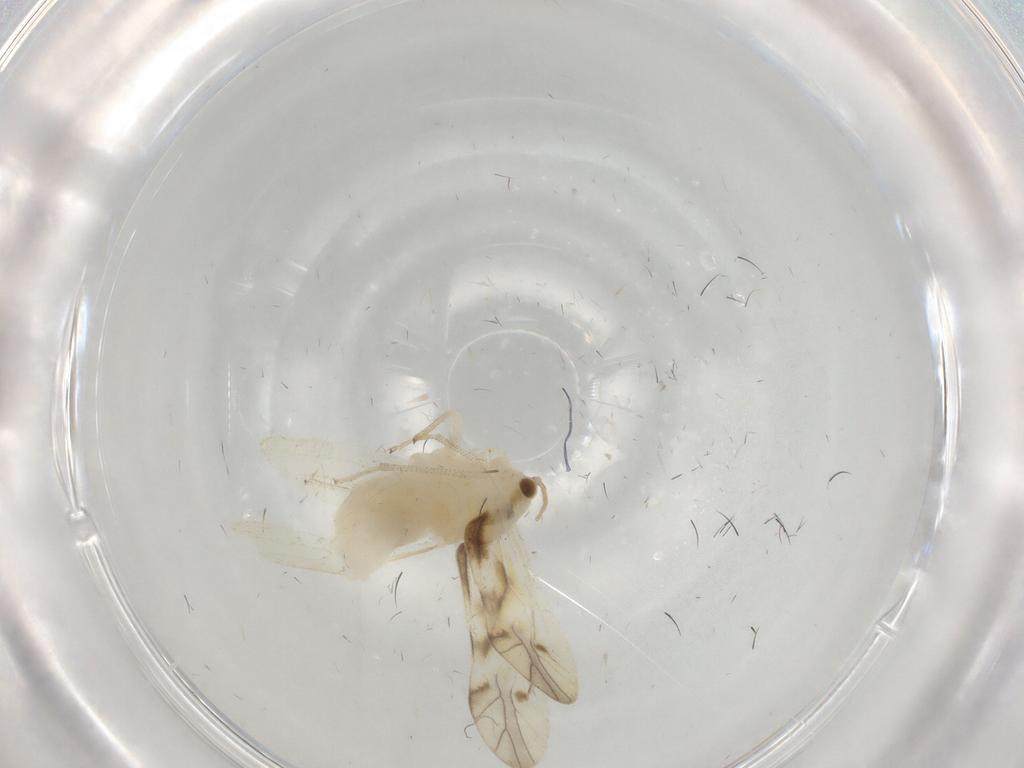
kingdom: Animalia
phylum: Arthropoda
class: Insecta
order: Psocodea
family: Caeciliusidae
